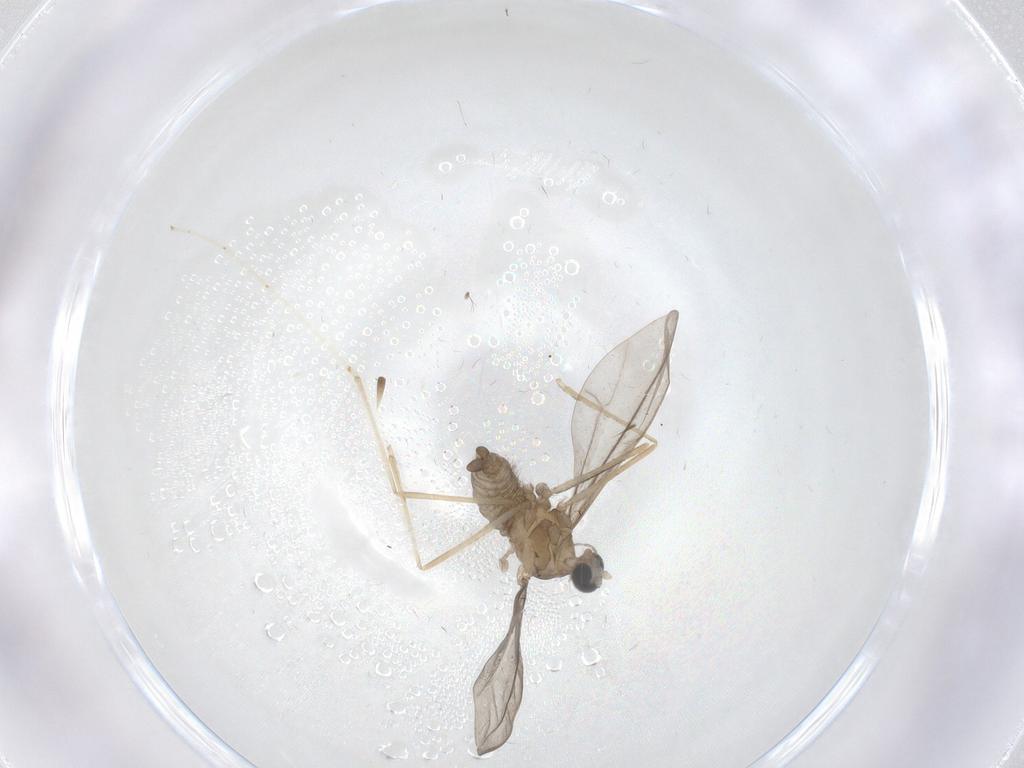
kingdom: Animalia
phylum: Arthropoda
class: Insecta
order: Diptera
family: Cecidomyiidae
